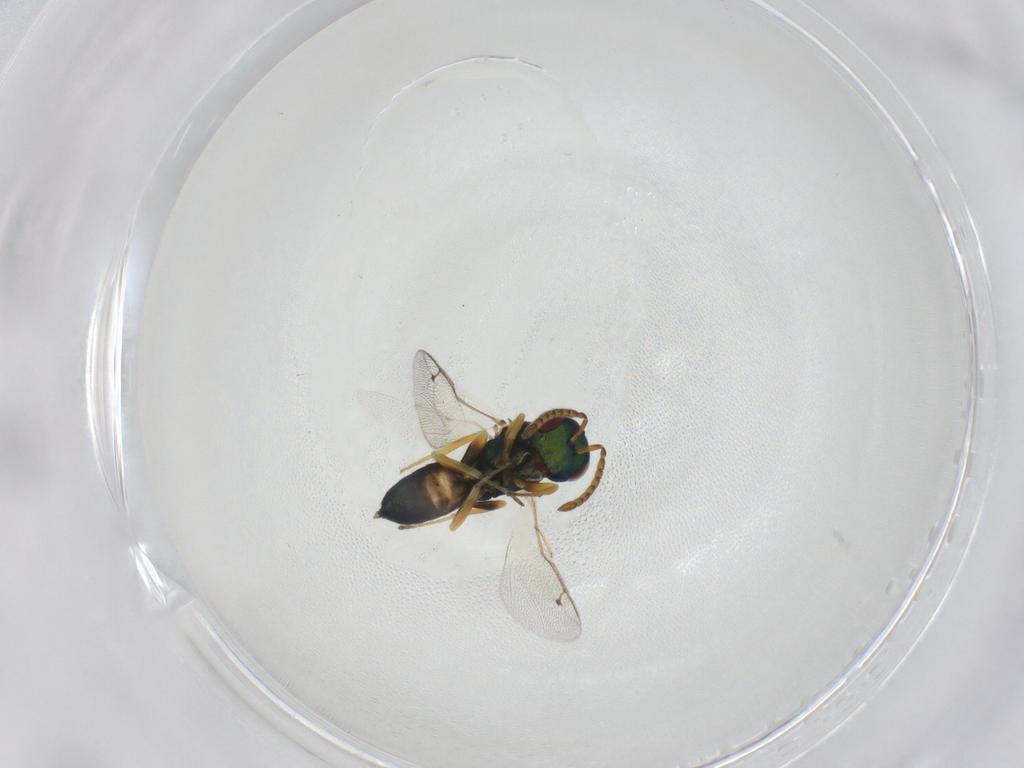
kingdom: Animalia
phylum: Arthropoda
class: Insecta
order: Hymenoptera
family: Pteromalidae
